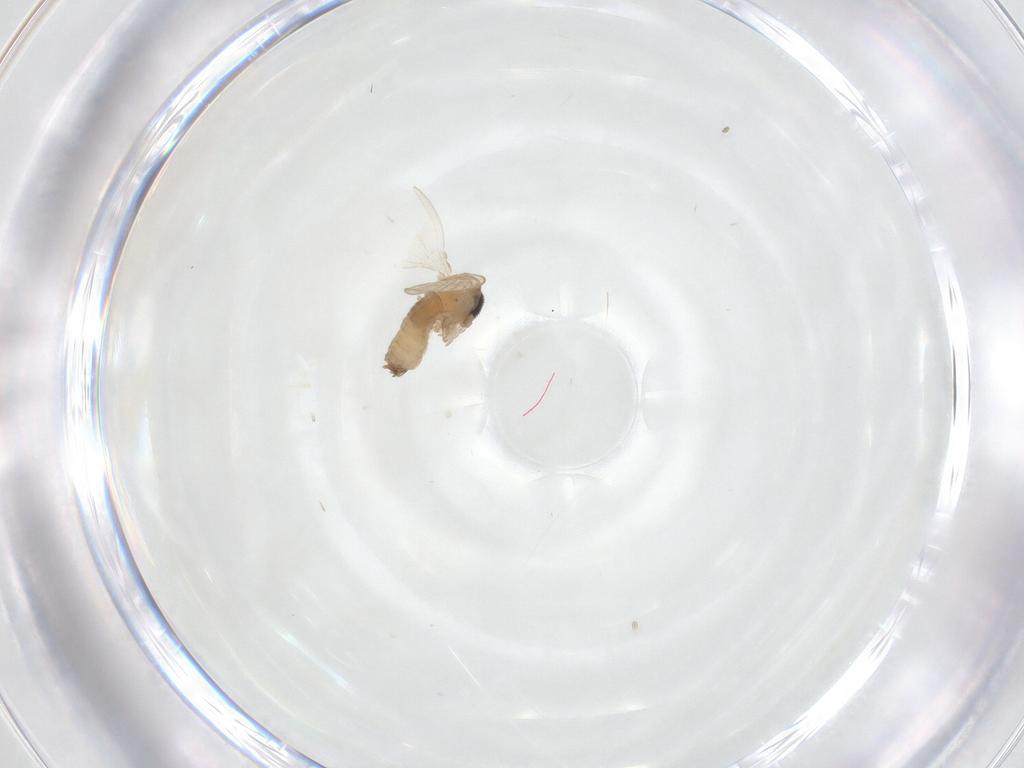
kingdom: Animalia
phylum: Arthropoda
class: Insecta
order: Diptera
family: Psychodidae
